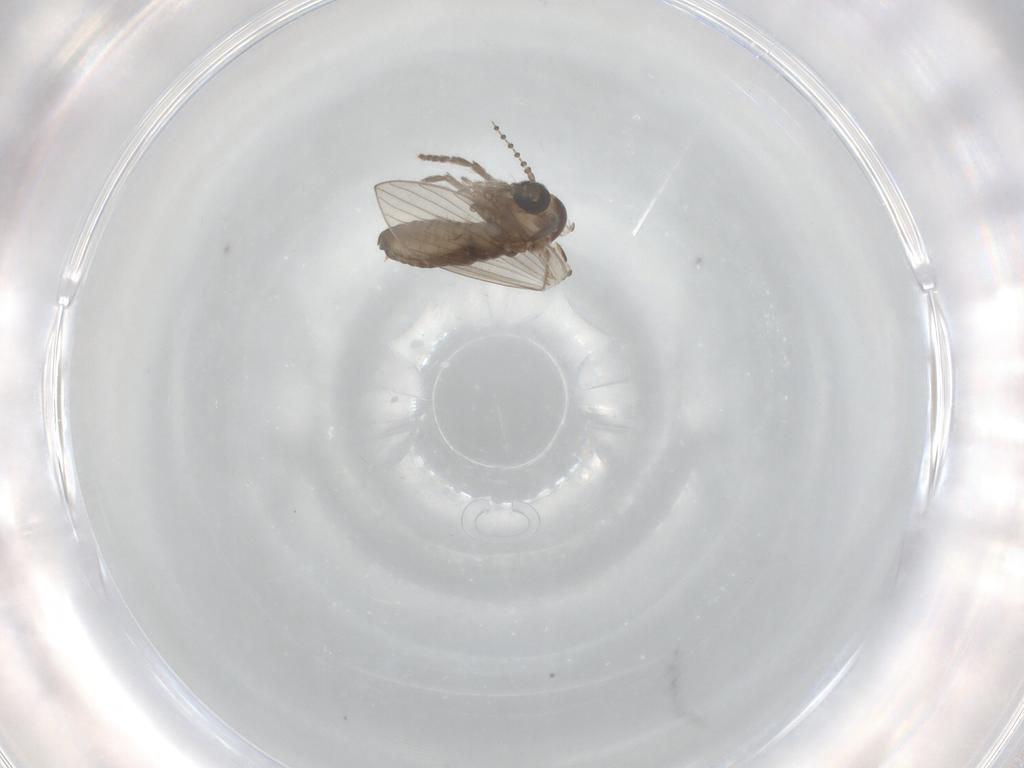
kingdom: Animalia
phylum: Arthropoda
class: Insecta
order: Diptera
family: Psychodidae
